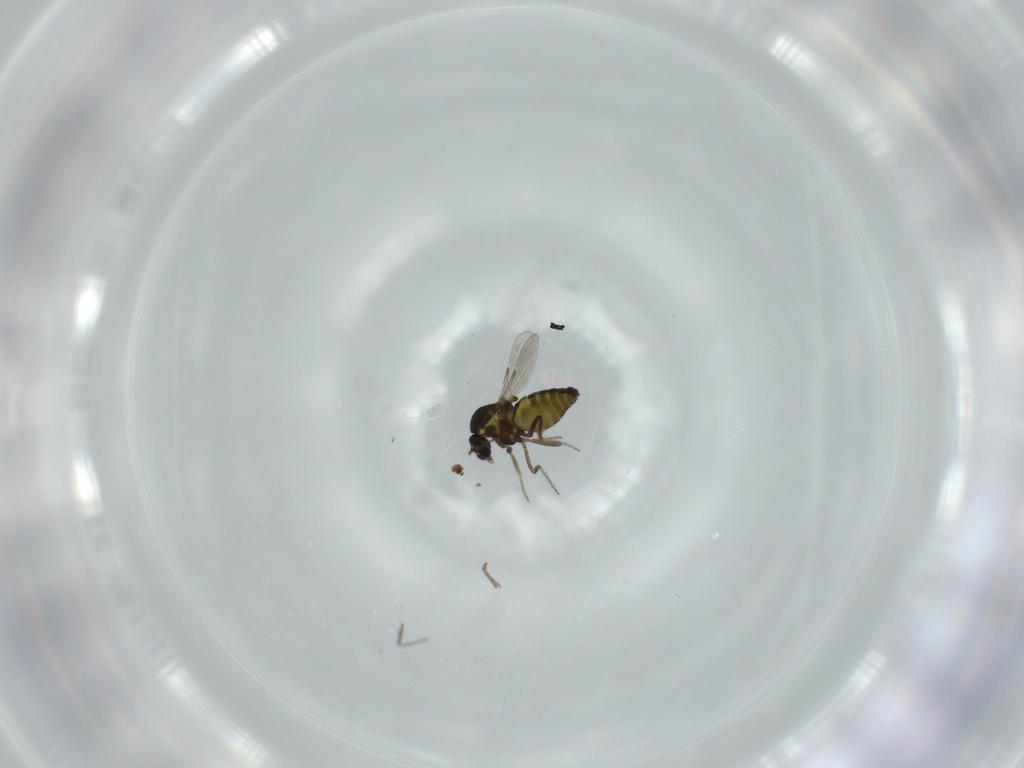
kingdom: Animalia
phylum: Arthropoda
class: Insecta
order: Diptera
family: Ceratopogonidae
